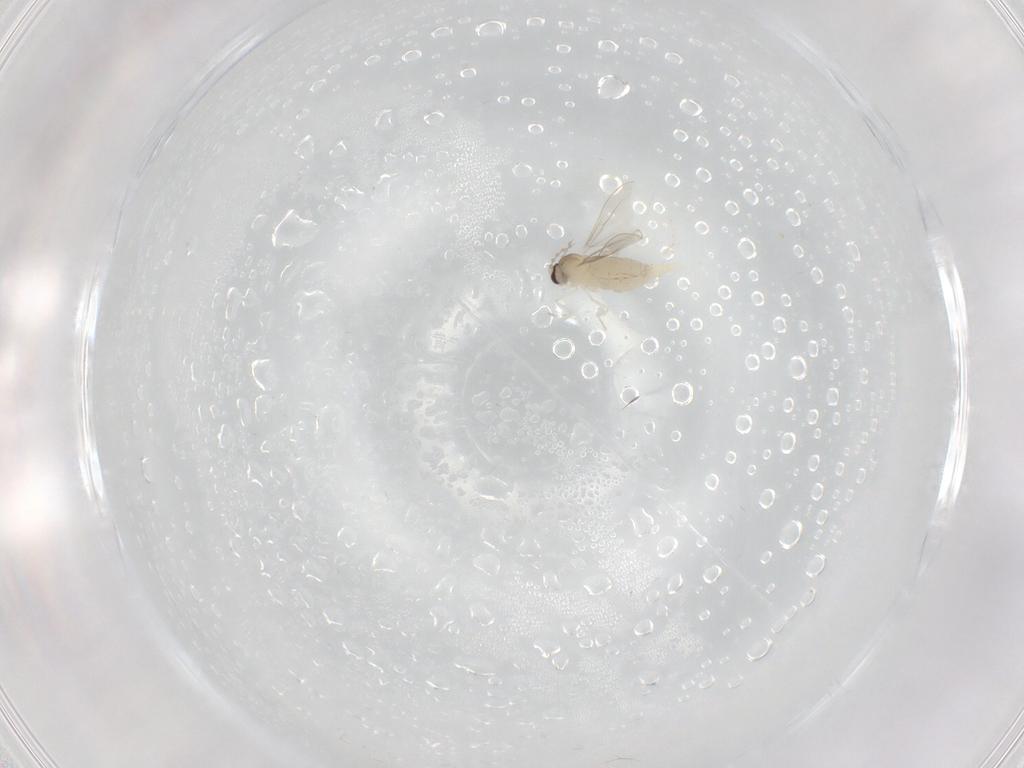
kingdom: Animalia
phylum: Arthropoda
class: Insecta
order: Diptera
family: Cecidomyiidae
